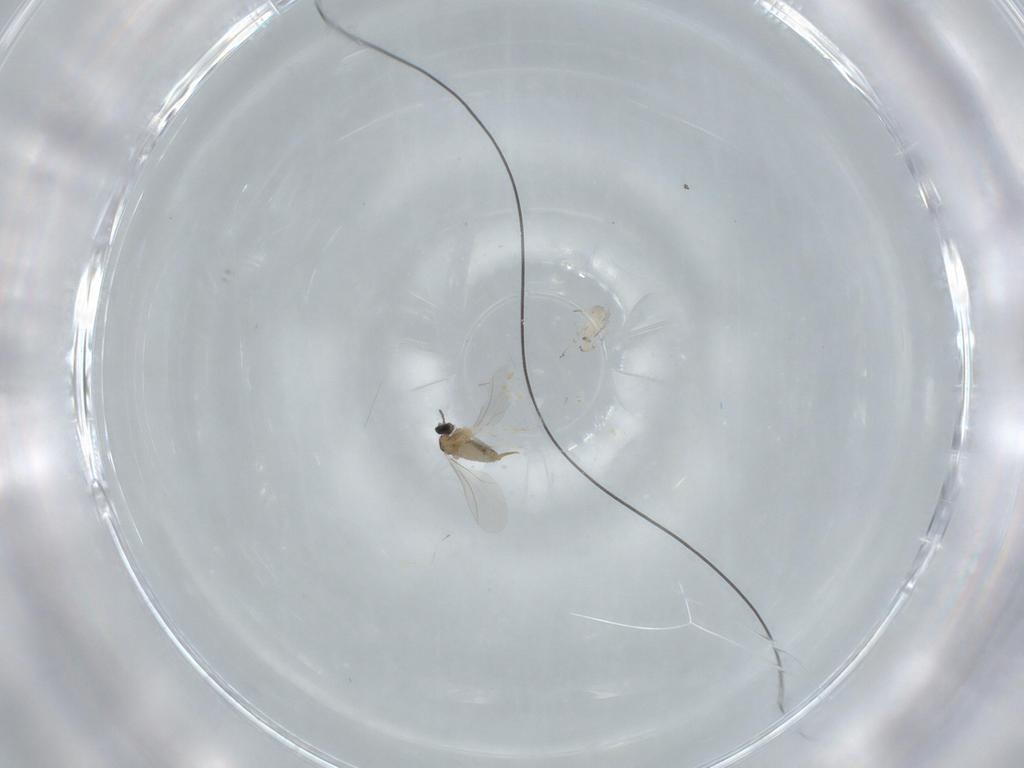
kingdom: Animalia
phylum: Arthropoda
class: Insecta
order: Diptera
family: Cecidomyiidae
